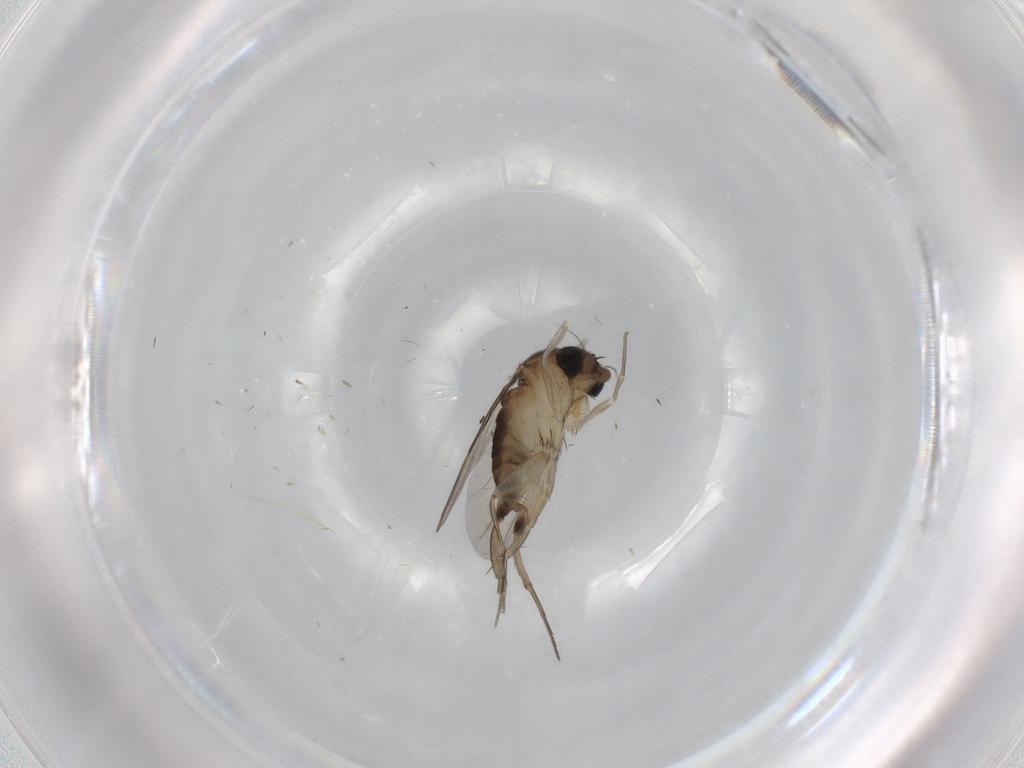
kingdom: Animalia
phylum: Arthropoda
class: Insecta
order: Diptera
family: Phoridae
